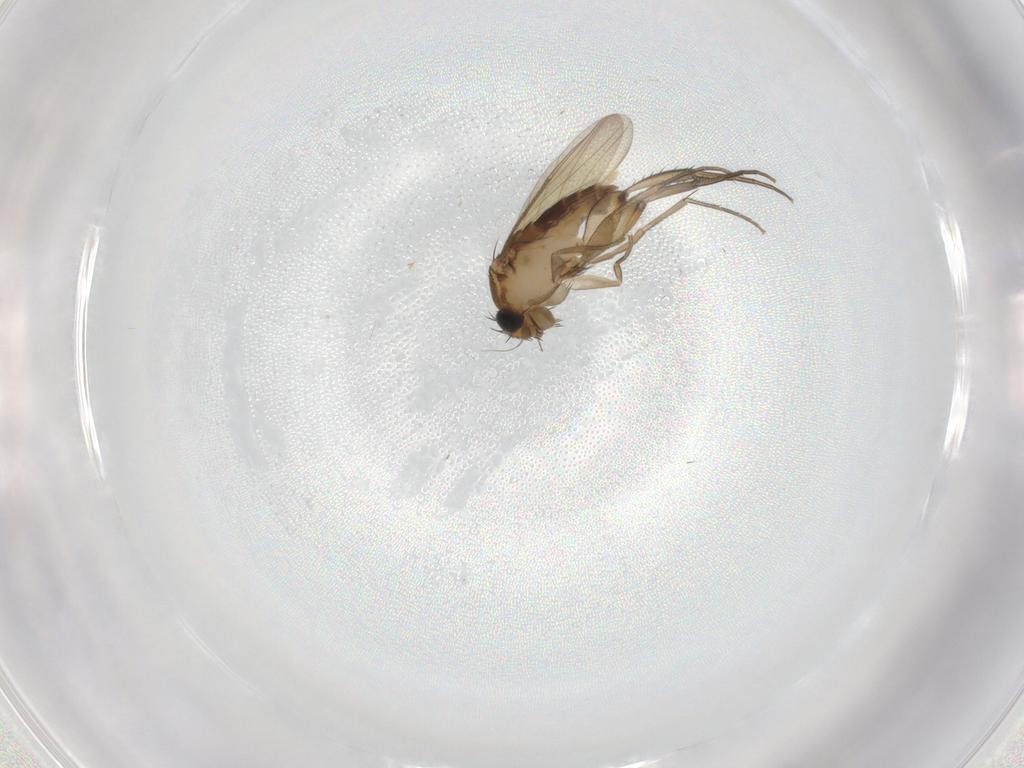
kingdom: Animalia
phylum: Arthropoda
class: Insecta
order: Diptera
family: Phoridae
